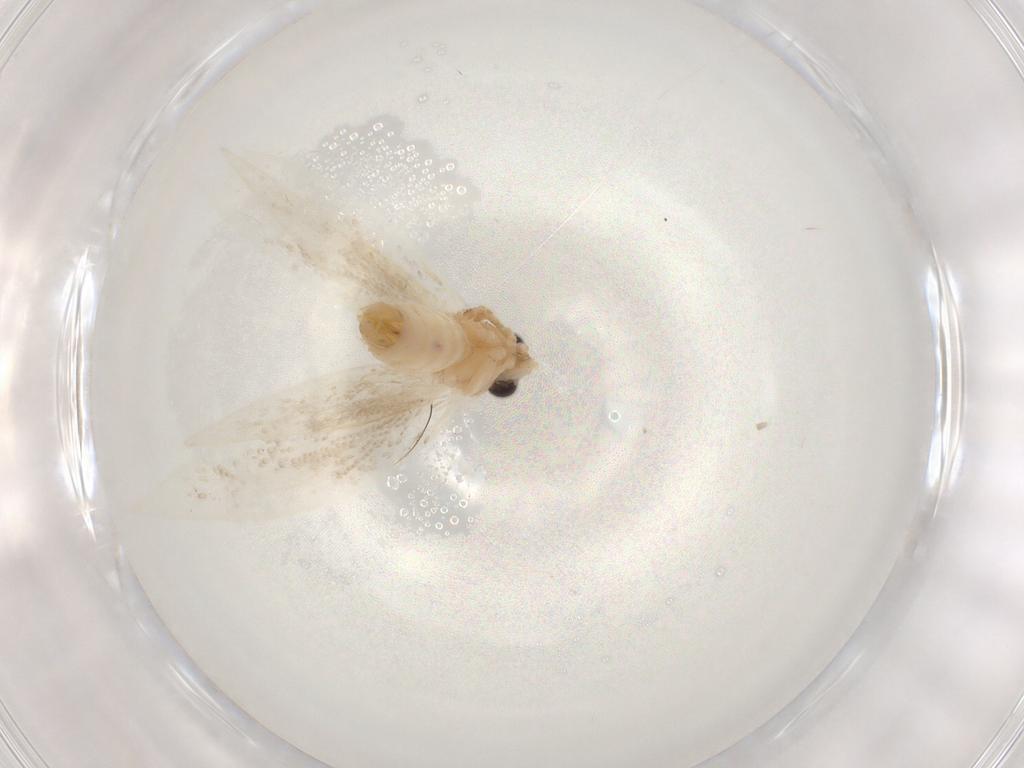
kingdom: Animalia
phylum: Arthropoda
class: Insecta
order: Lepidoptera
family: Tineidae
